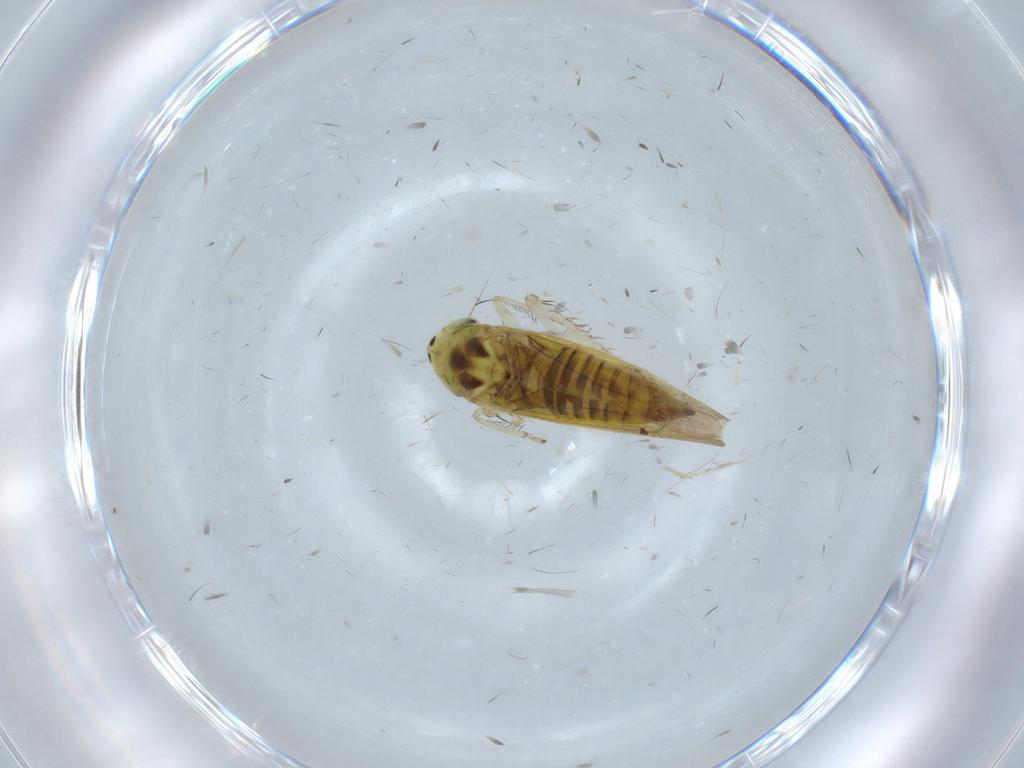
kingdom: Animalia
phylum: Arthropoda
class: Insecta
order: Hemiptera
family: Cicadellidae
